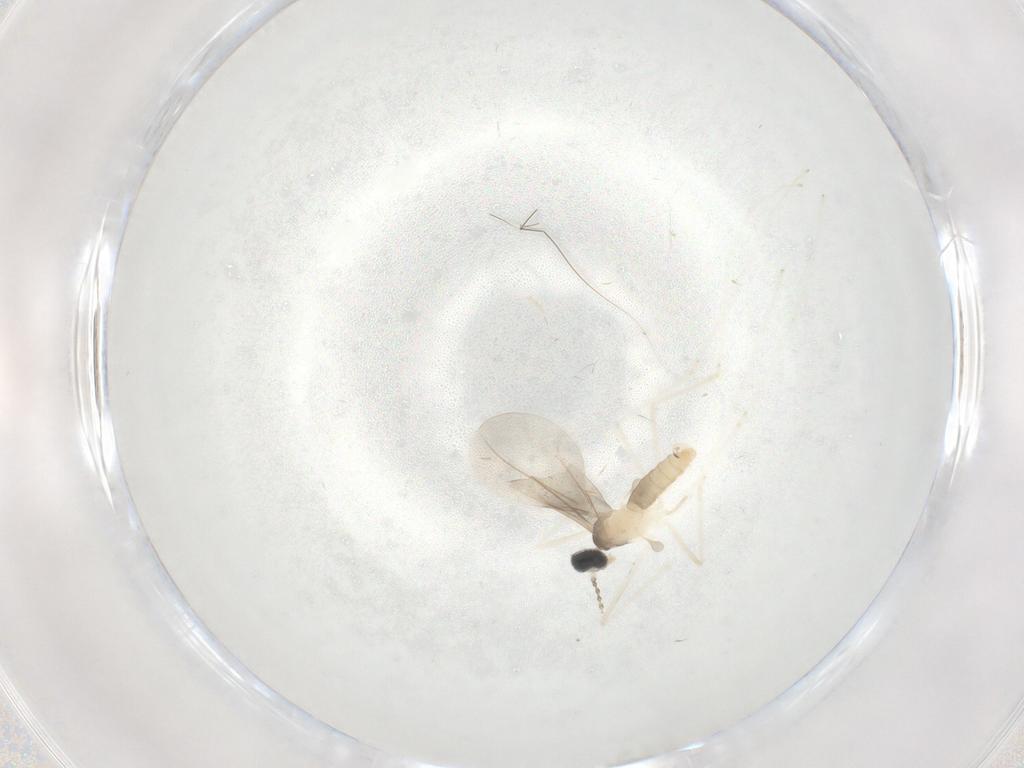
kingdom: Animalia
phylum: Arthropoda
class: Insecta
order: Diptera
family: Cecidomyiidae
